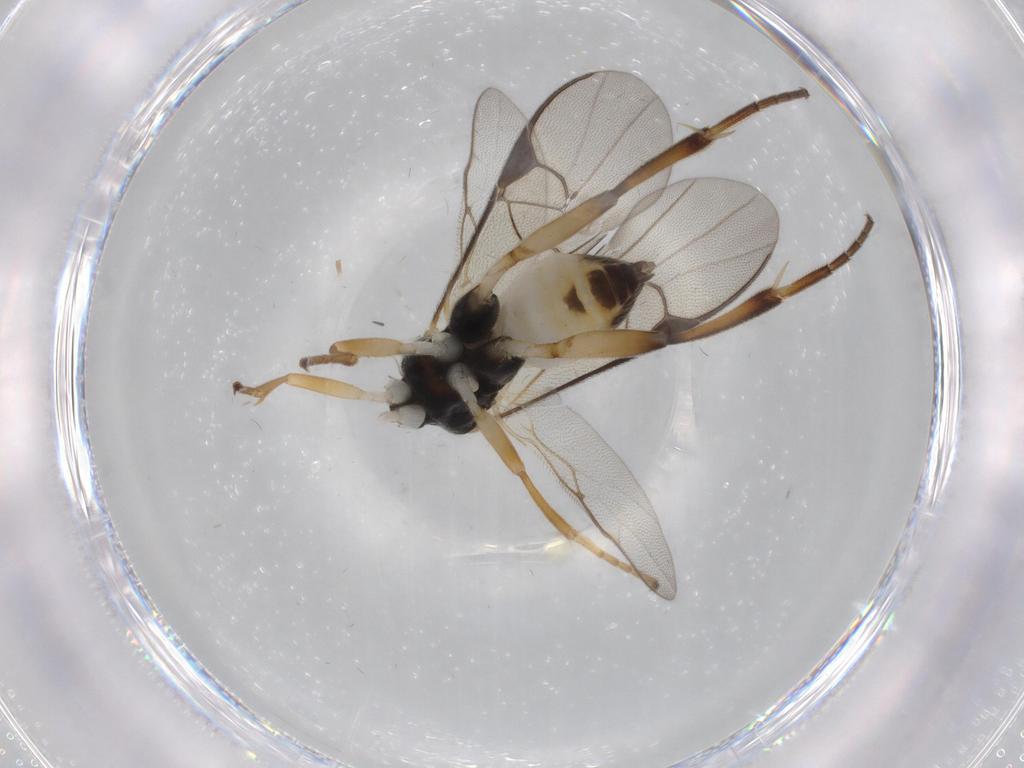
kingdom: Animalia
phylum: Arthropoda
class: Insecta
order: Hymenoptera
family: Braconidae
